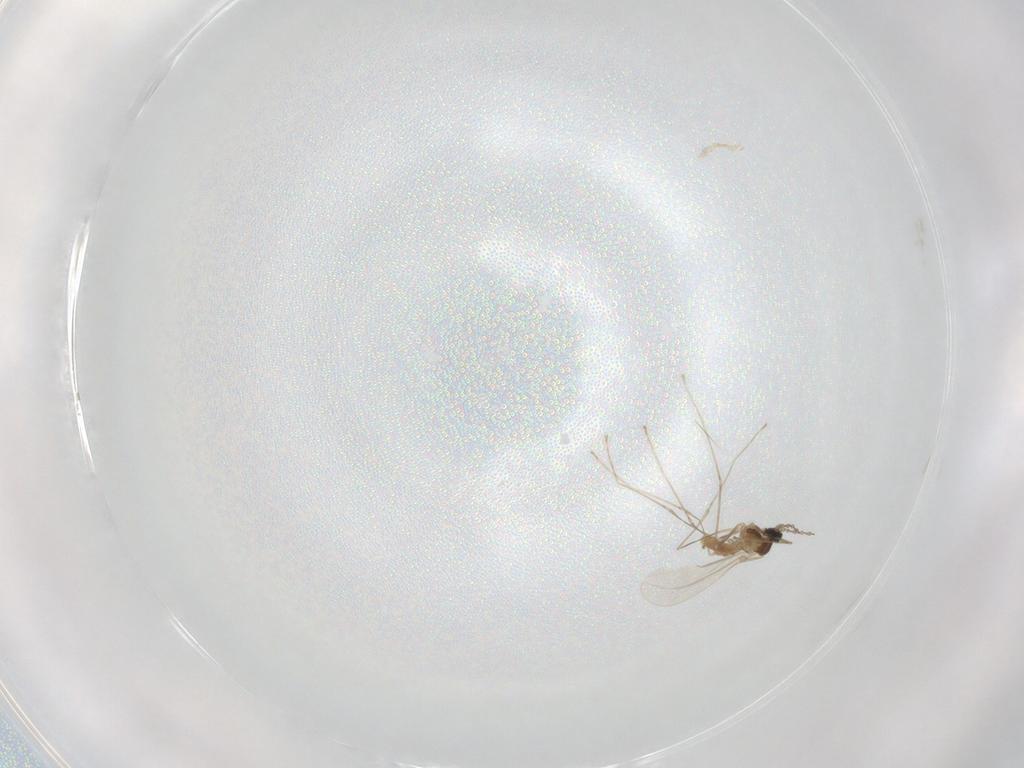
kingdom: Animalia
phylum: Arthropoda
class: Insecta
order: Diptera
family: Cecidomyiidae
